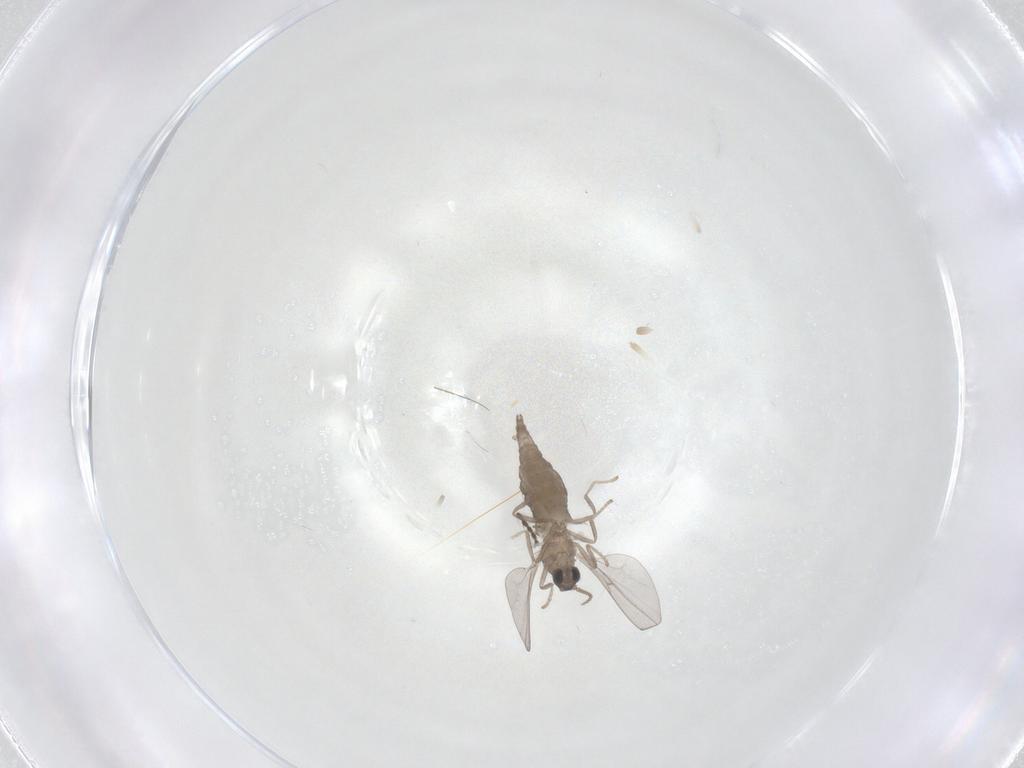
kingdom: Animalia
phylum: Arthropoda
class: Insecta
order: Diptera
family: Cecidomyiidae
